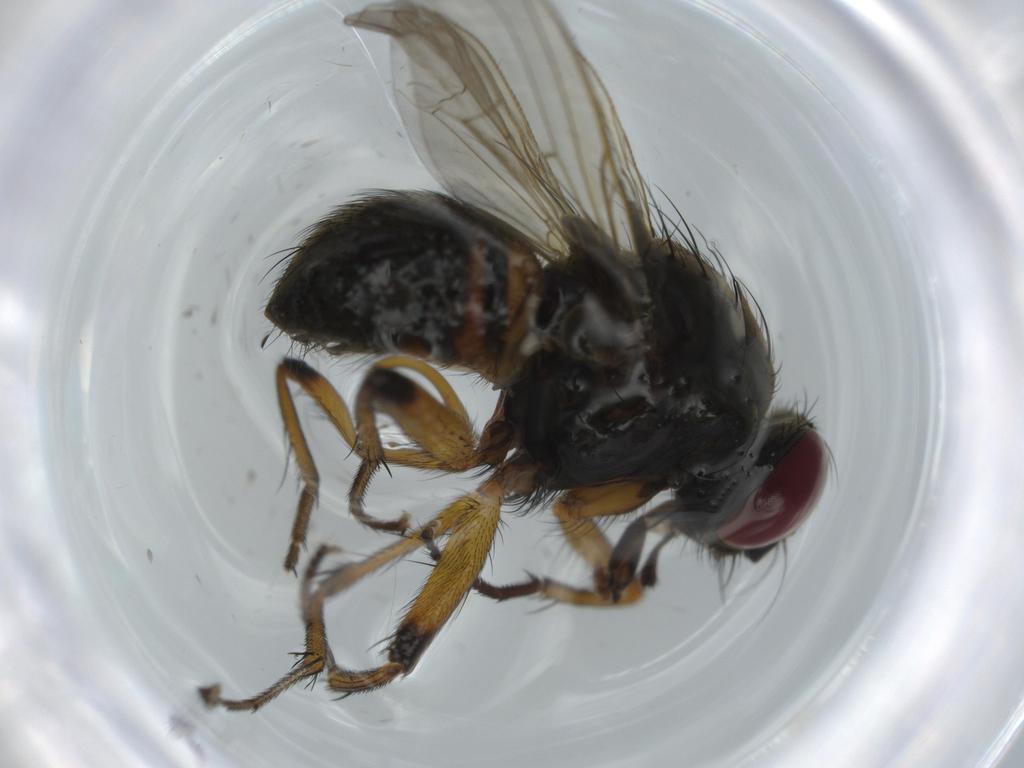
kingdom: Animalia
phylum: Arthropoda
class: Insecta
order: Diptera
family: Muscidae
